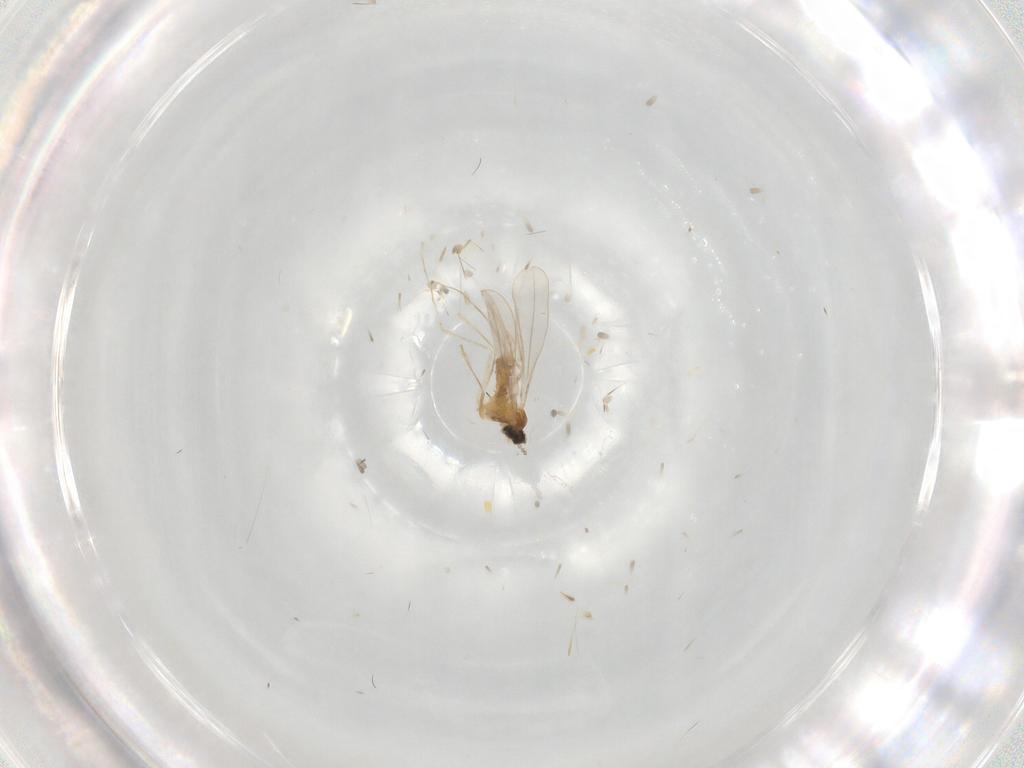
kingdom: Animalia
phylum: Arthropoda
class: Insecta
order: Diptera
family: Cecidomyiidae
